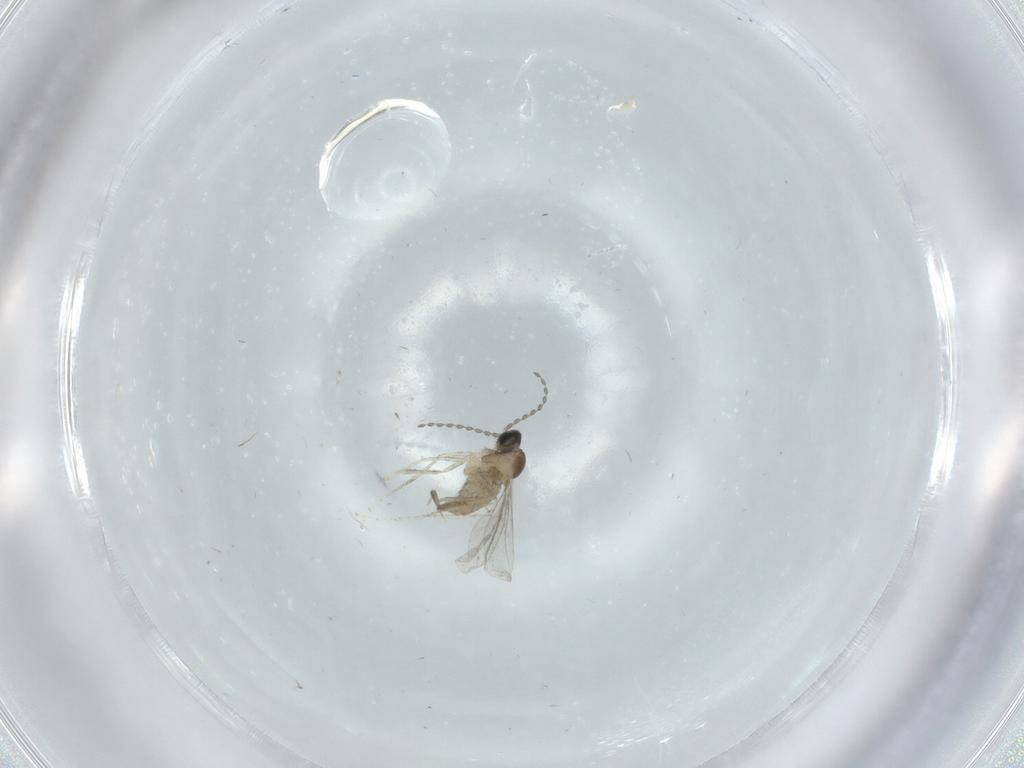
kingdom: Animalia
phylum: Arthropoda
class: Insecta
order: Diptera
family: Cecidomyiidae
